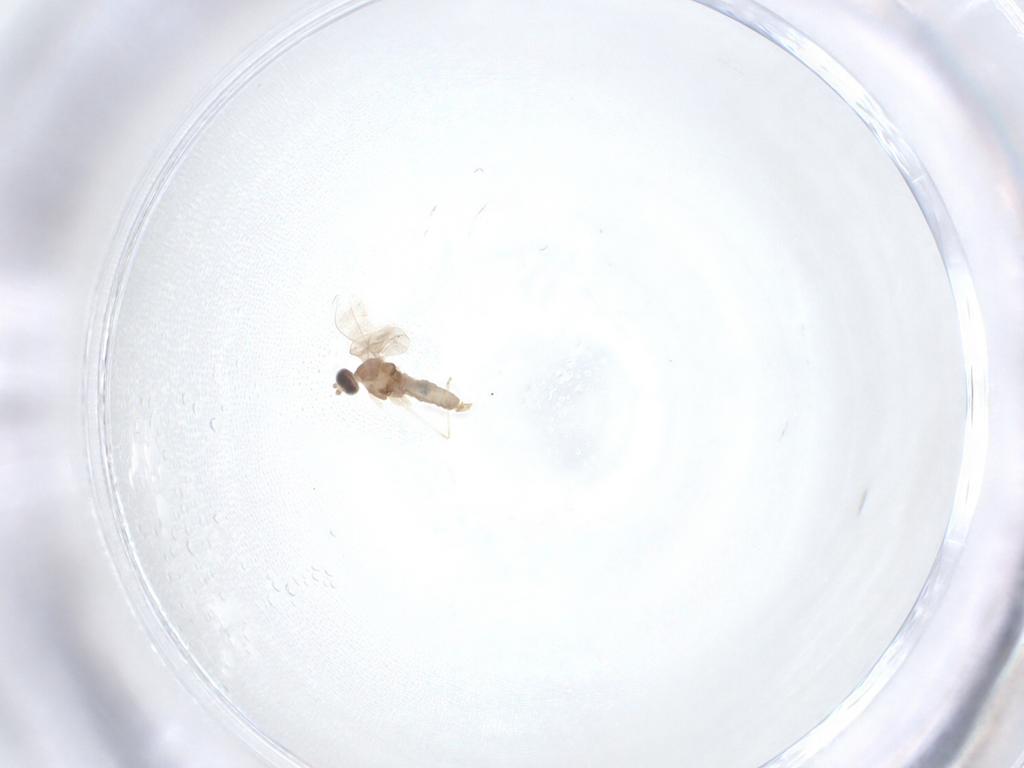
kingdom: Animalia
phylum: Arthropoda
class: Insecta
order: Diptera
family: Cecidomyiidae
